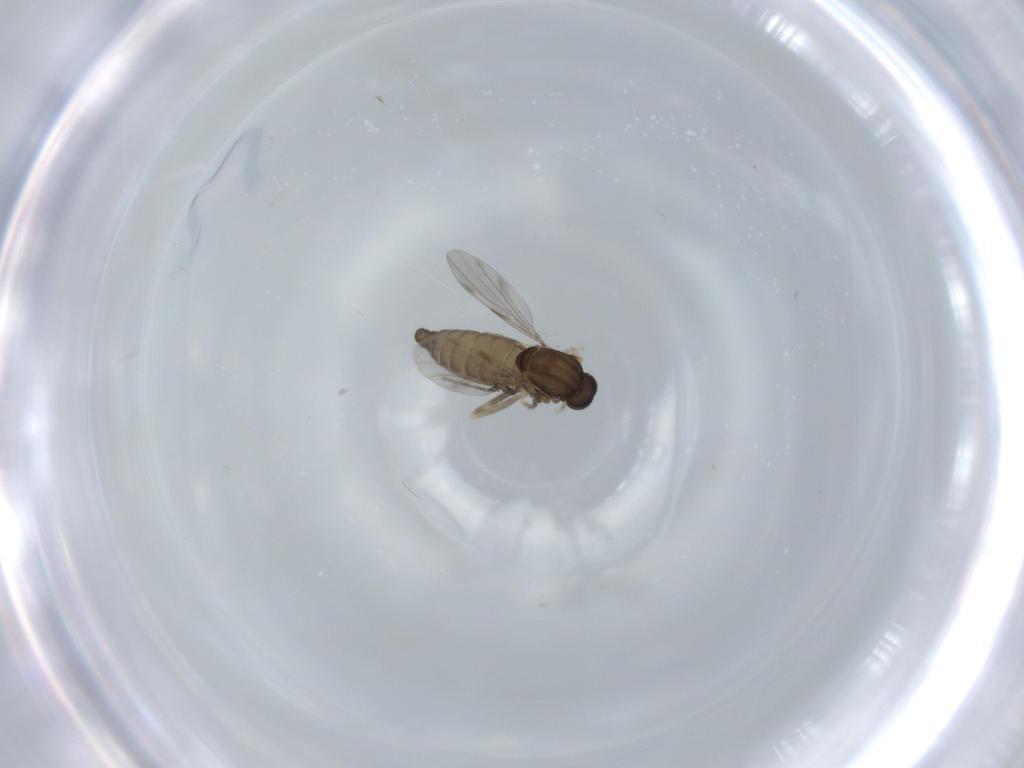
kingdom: Animalia
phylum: Arthropoda
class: Insecta
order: Diptera
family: Ceratopogonidae
